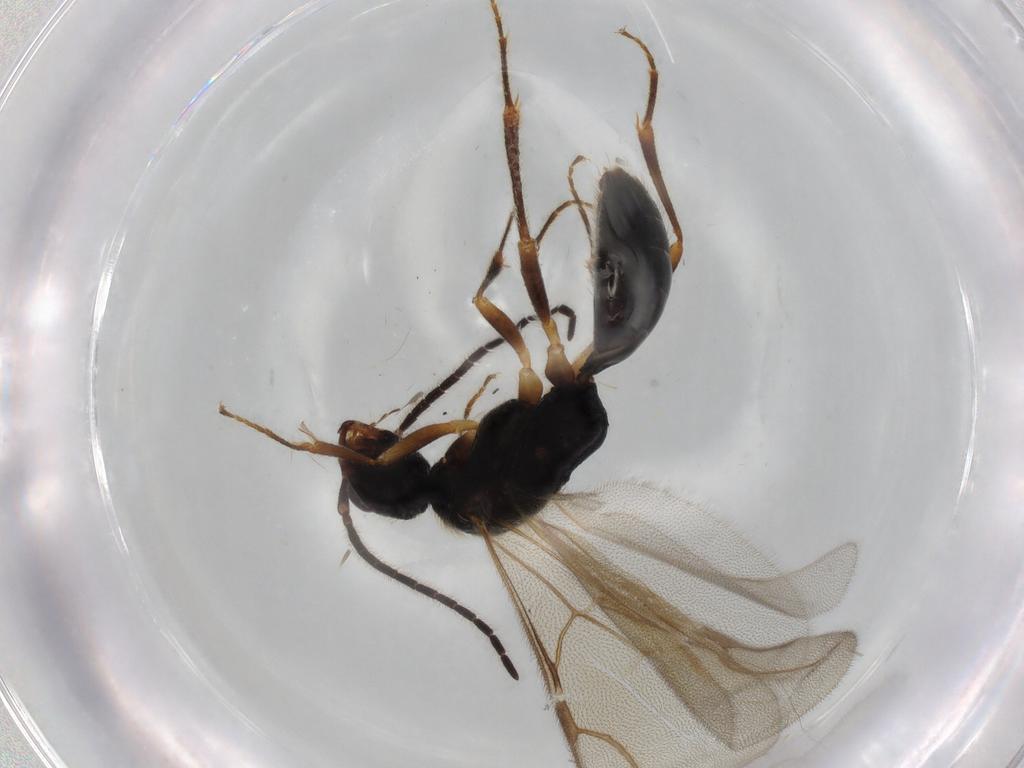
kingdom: Animalia
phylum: Arthropoda
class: Insecta
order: Hymenoptera
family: Bethylidae
